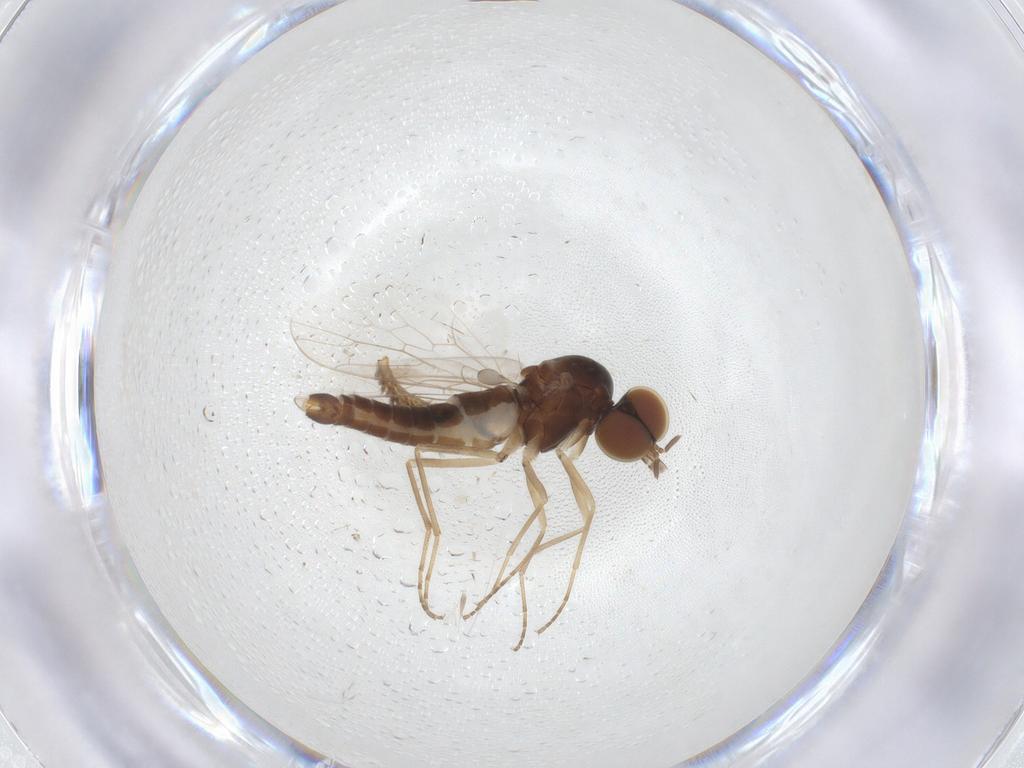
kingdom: Animalia
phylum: Arthropoda
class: Insecta
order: Diptera
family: Scenopinidae
